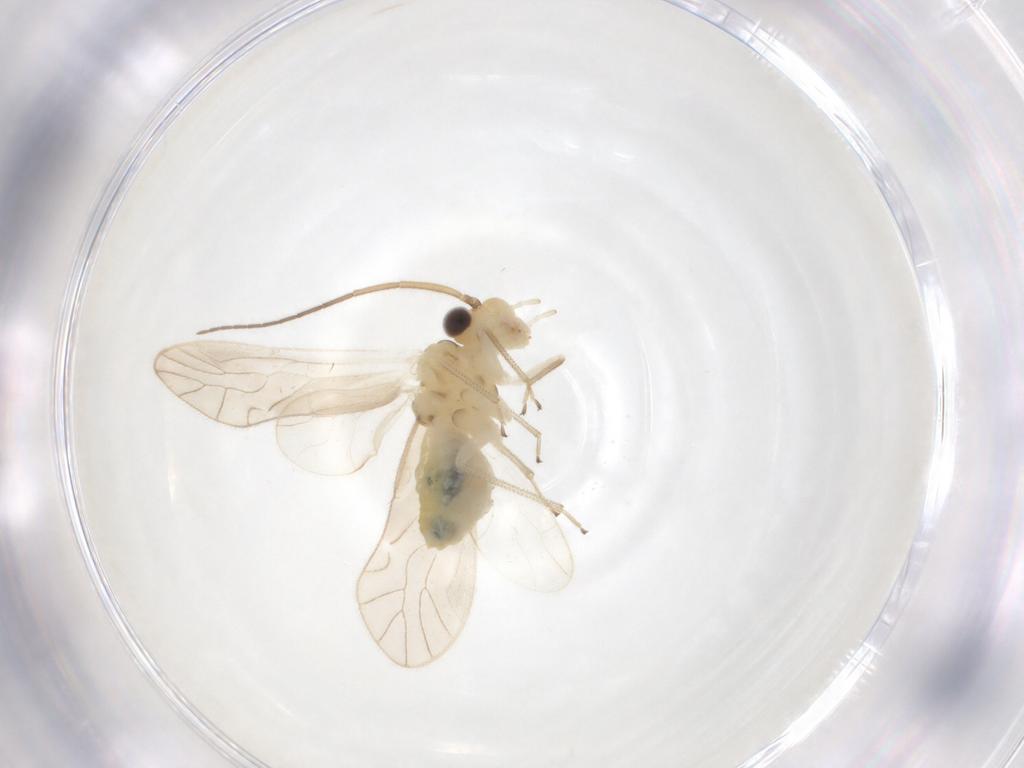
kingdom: Animalia
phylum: Arthropoda
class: Insecta
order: Psocodea
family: Caeciliusidae
